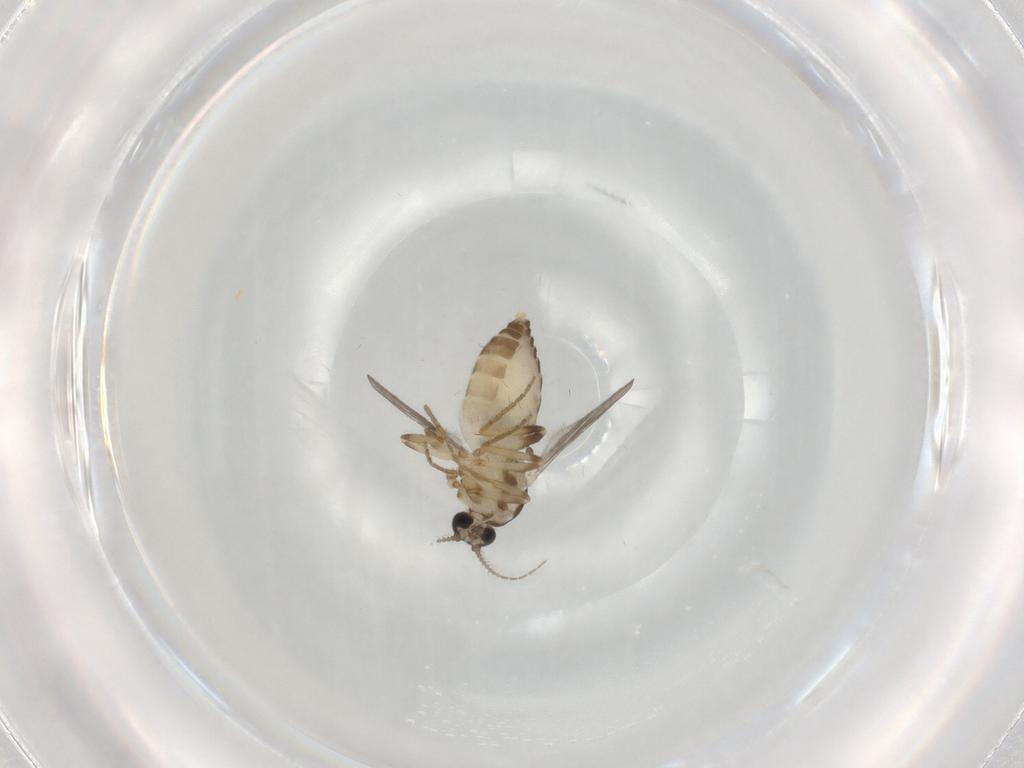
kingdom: Animalia
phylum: Arthropoda
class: Insecta
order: Diptera
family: Ceratopogonidae
